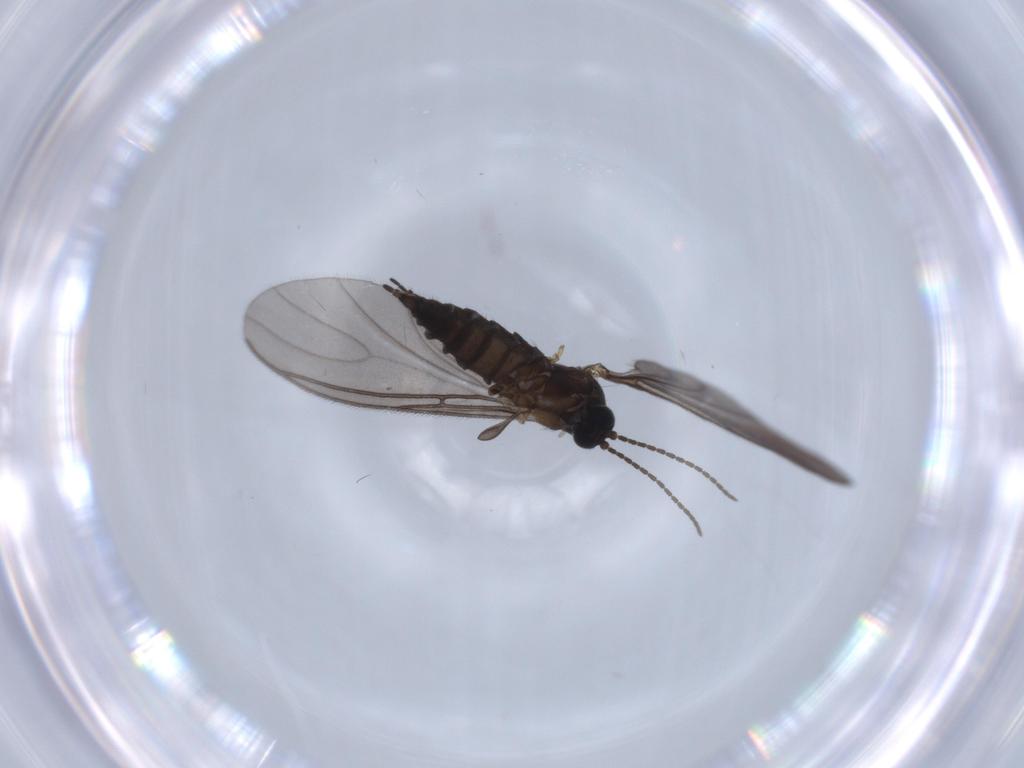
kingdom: Animalia
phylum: Arthropoda
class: Insecta
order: Diptera
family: Sciaridae
